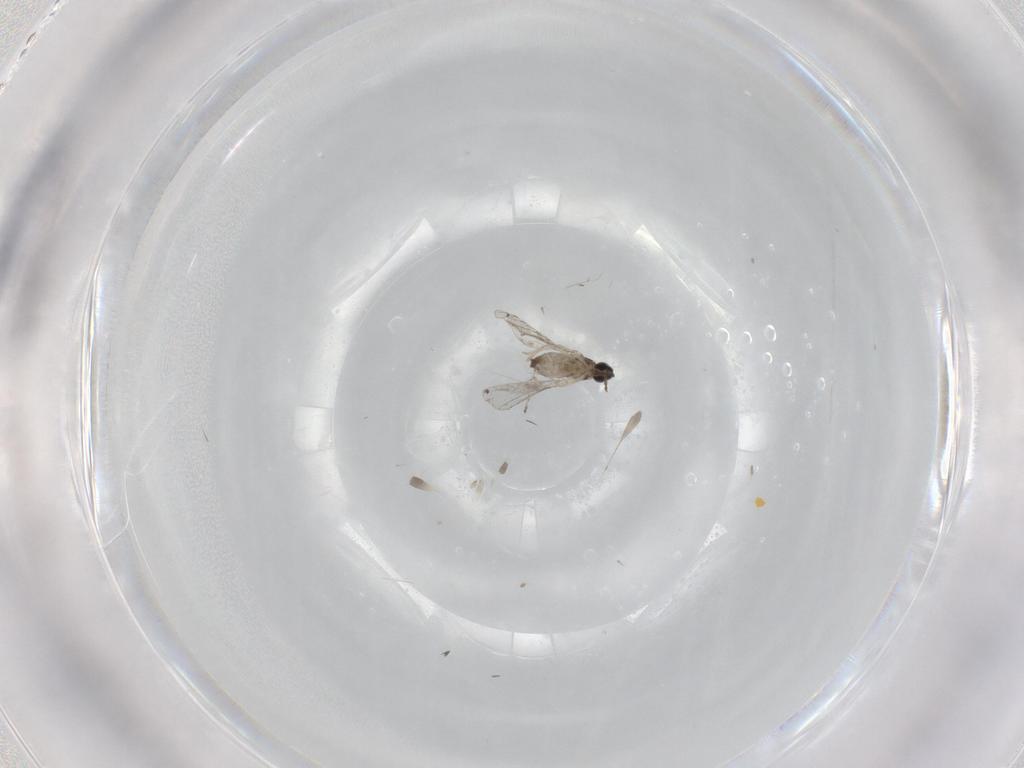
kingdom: Animalia
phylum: Arthropoda
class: Insecta
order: Diptera
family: Cecidomyiidae
